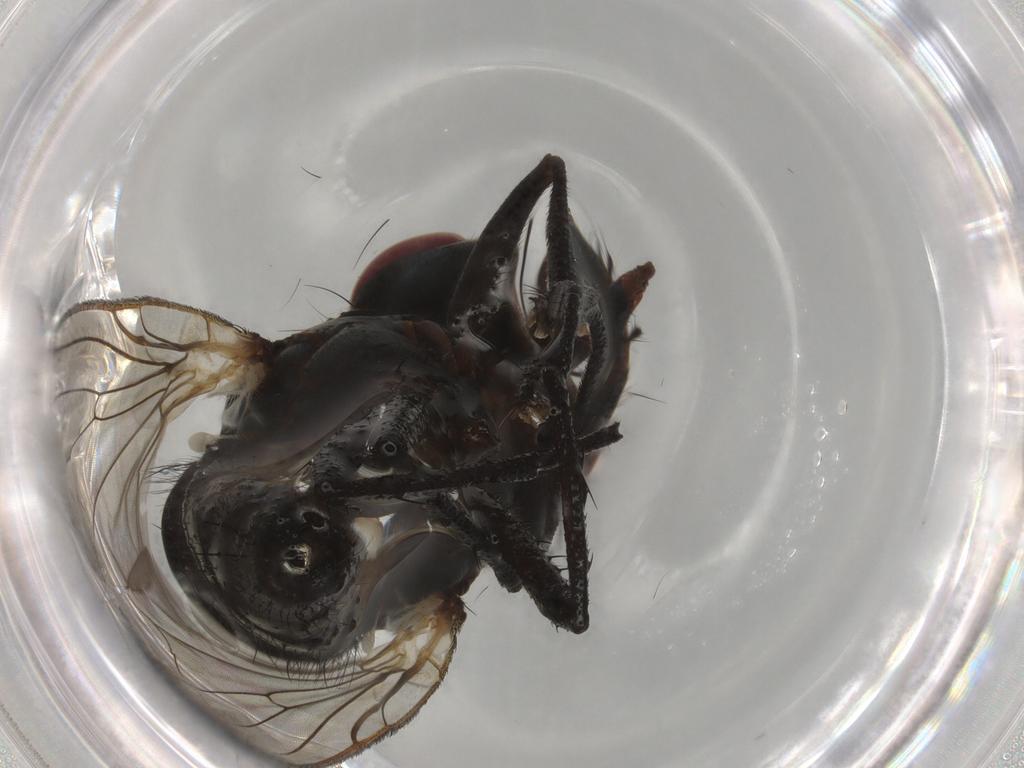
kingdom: Animalia
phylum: Arthropoda
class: Insecta
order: Diptera
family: Anthomyiidae
